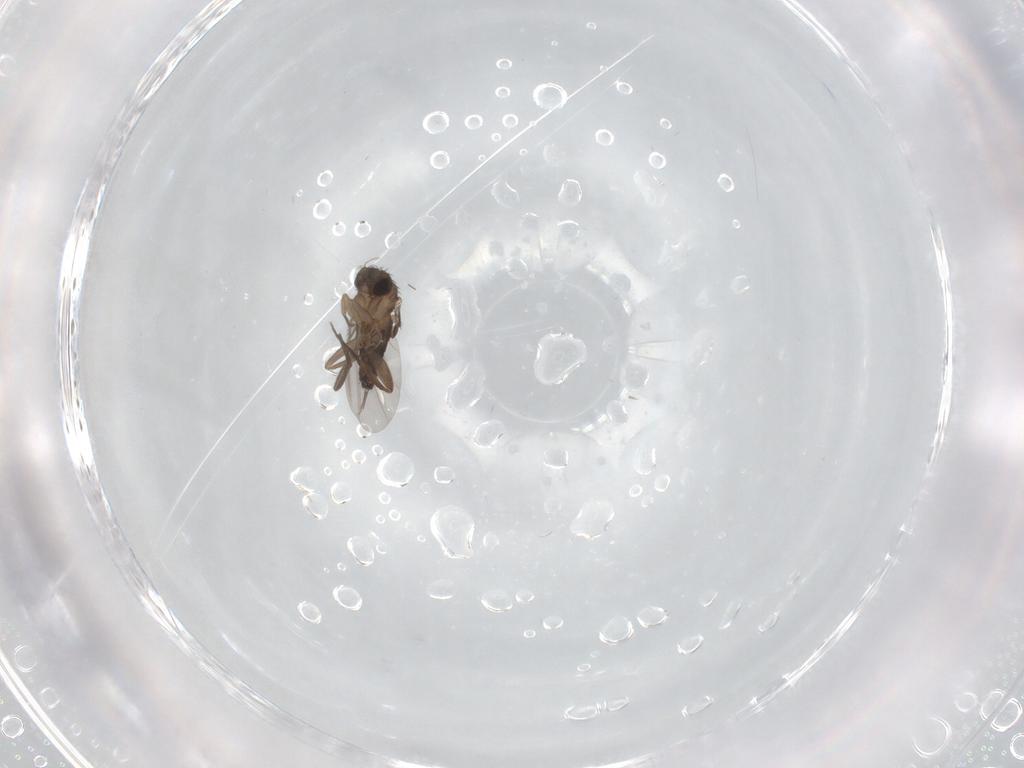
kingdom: Animalia
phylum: Arthropoda
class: Insecta
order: Diptera
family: Phoridae
